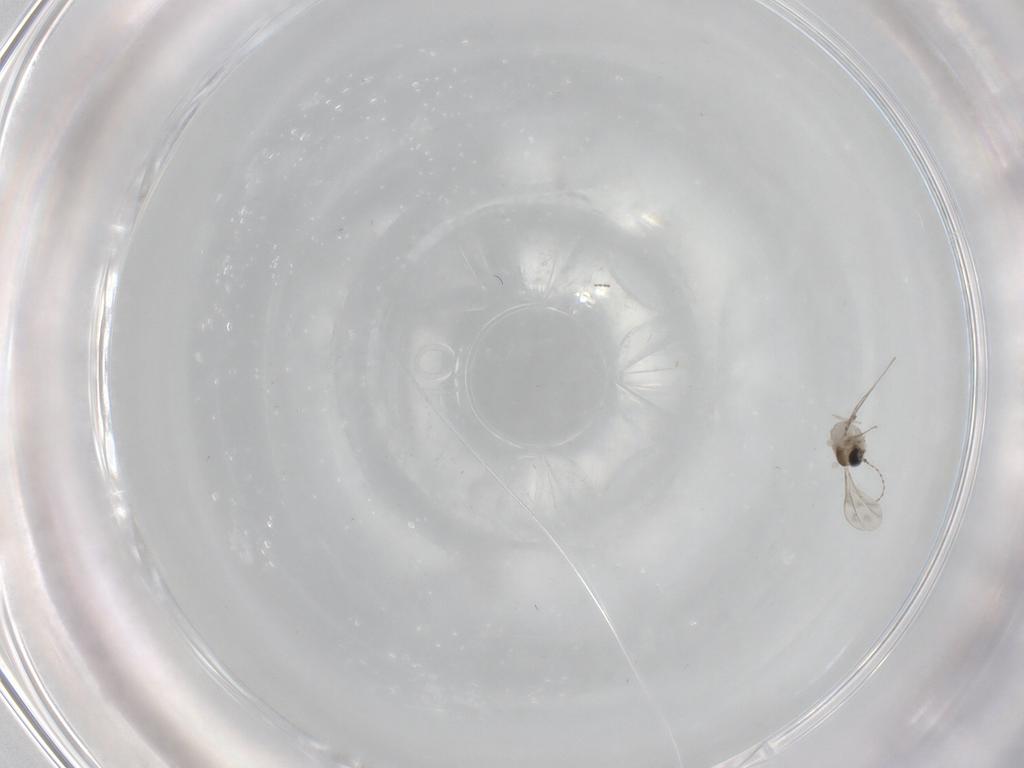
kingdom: Animalia
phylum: Arthropoda
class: Insecta
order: Diptera
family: Cecidomyiidae
